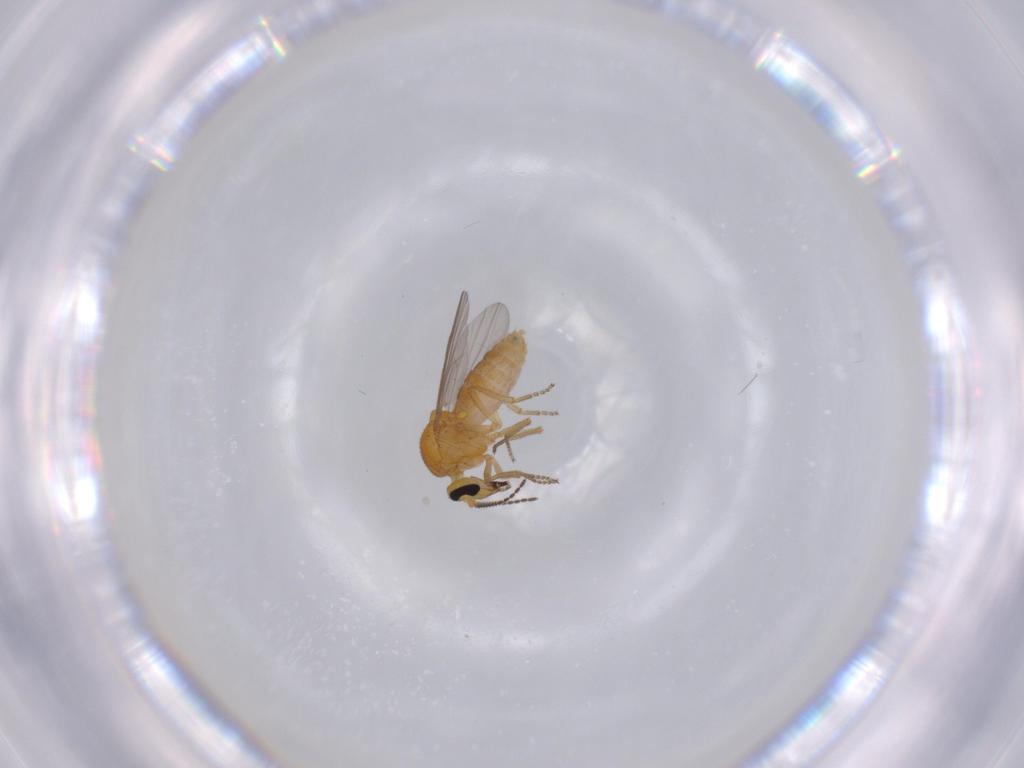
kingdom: Animalia
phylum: Arthropoda
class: Insecta
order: Diptera
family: Ceratopogonidae
